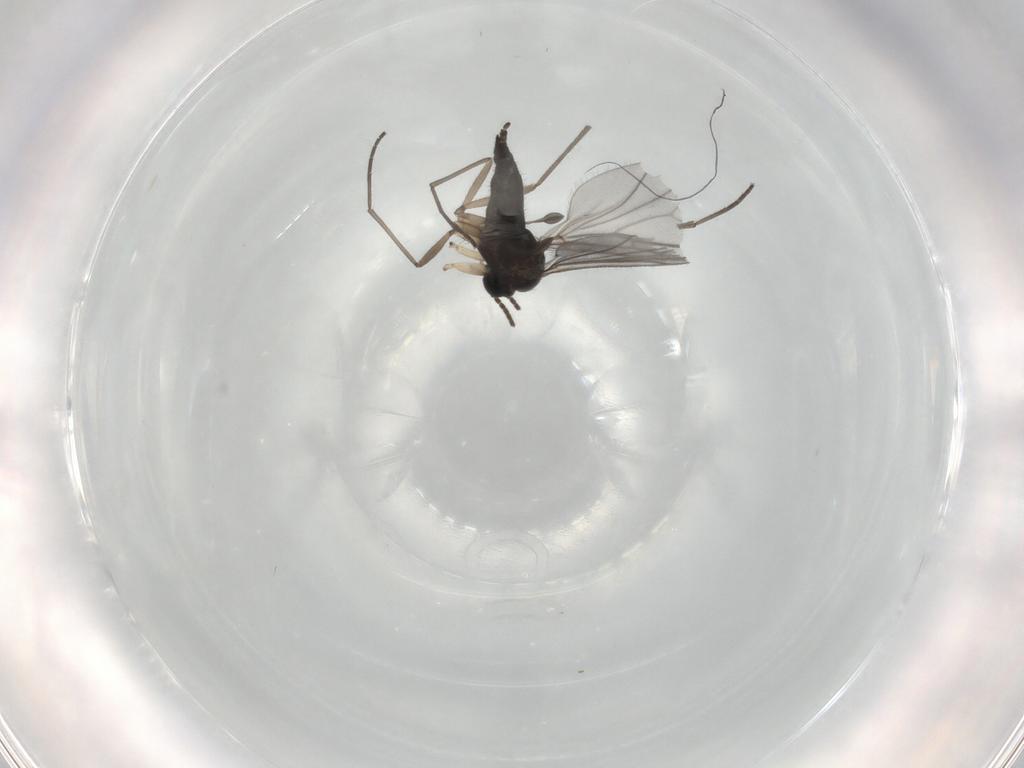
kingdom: Animalia
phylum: Arthropoda
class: Insecta
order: Diptera
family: Sciaridae
